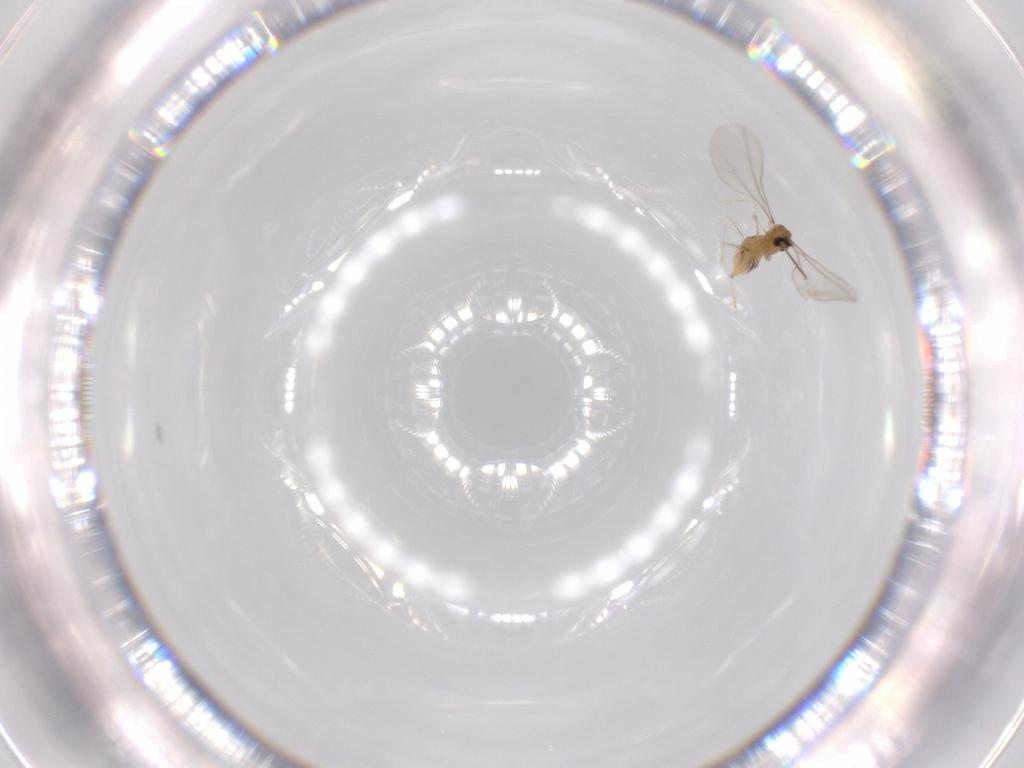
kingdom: Animalia
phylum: Arthropoda
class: Insecta
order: Diptera
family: Cecidomyiidae
